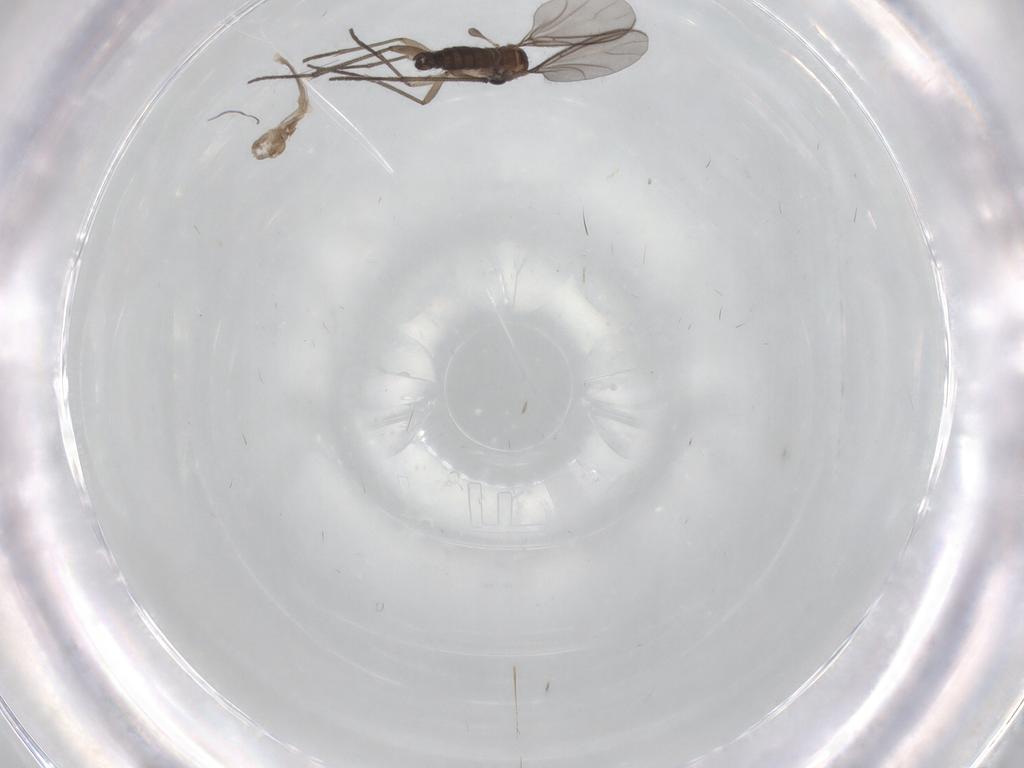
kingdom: Animalia
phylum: Arthropoda
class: Insecta
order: Diptera
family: Sciaridae
